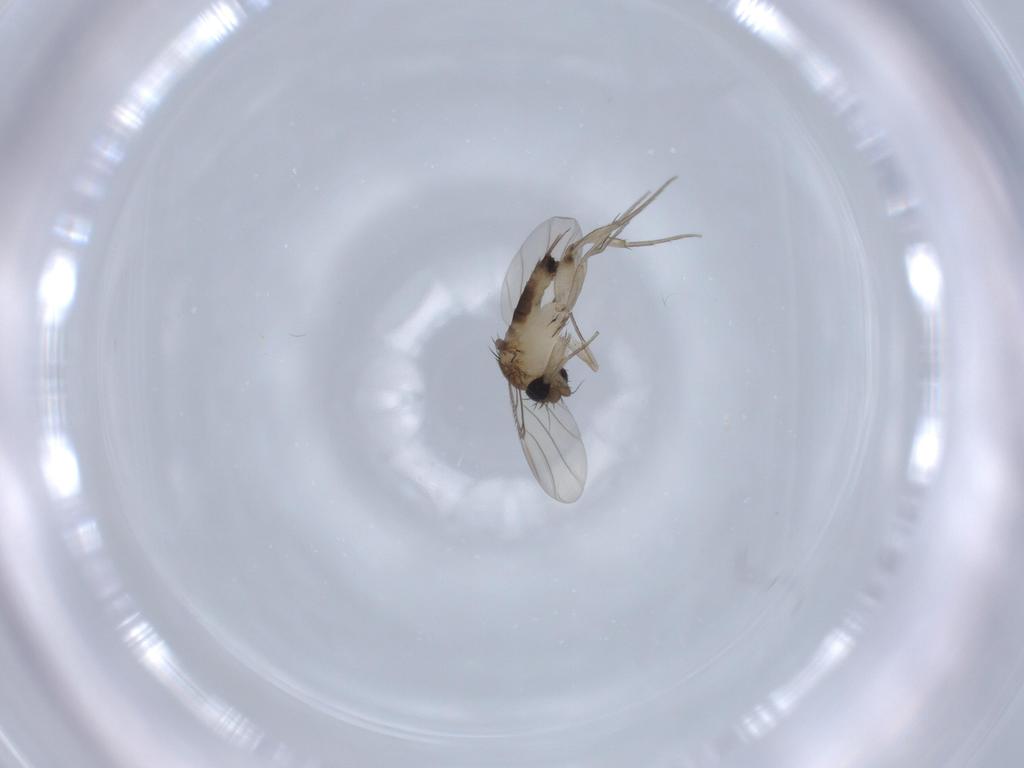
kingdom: Animalia
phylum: Arthropoda
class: Insecta
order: Diptera
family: Phoridae
